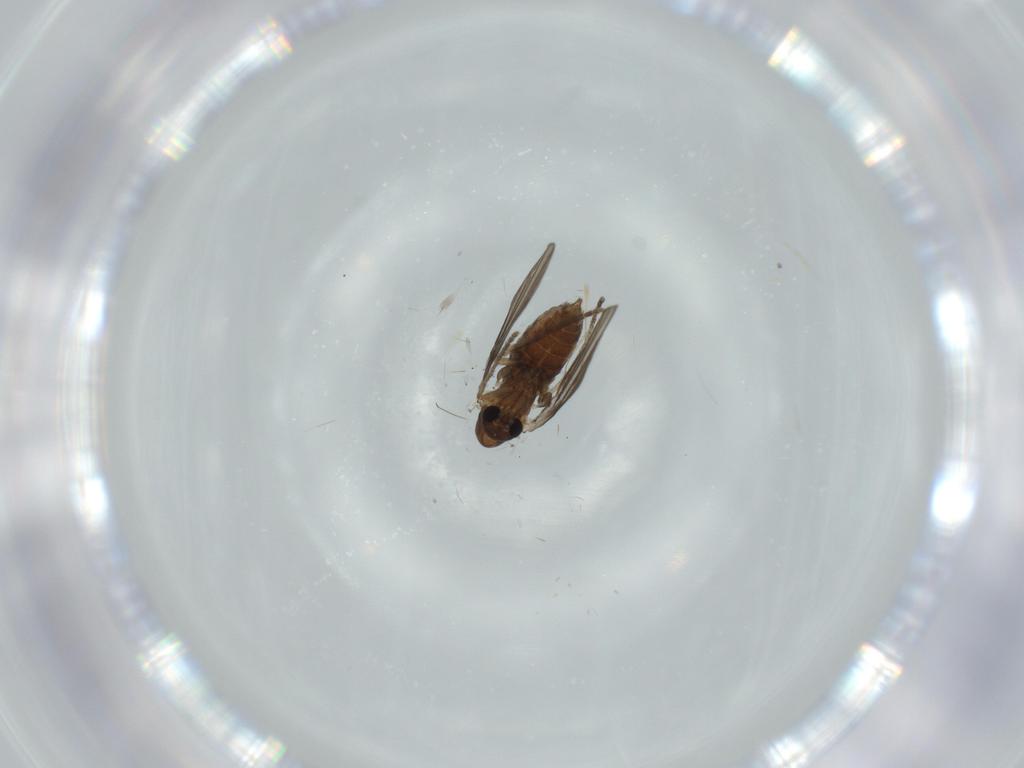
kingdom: Animalia
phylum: Arthropoda
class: Insecta
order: Diptera
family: Psychodidae
